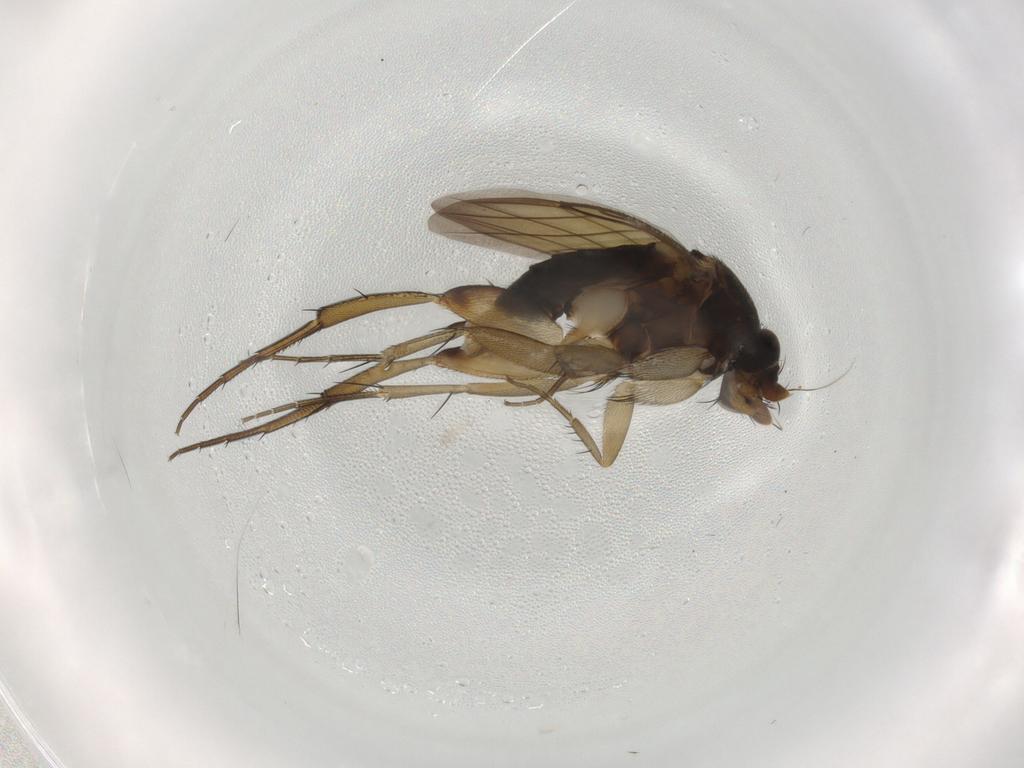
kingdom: Animalia
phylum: Arthropoda
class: Insecta
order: Diptera
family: Phoridae
